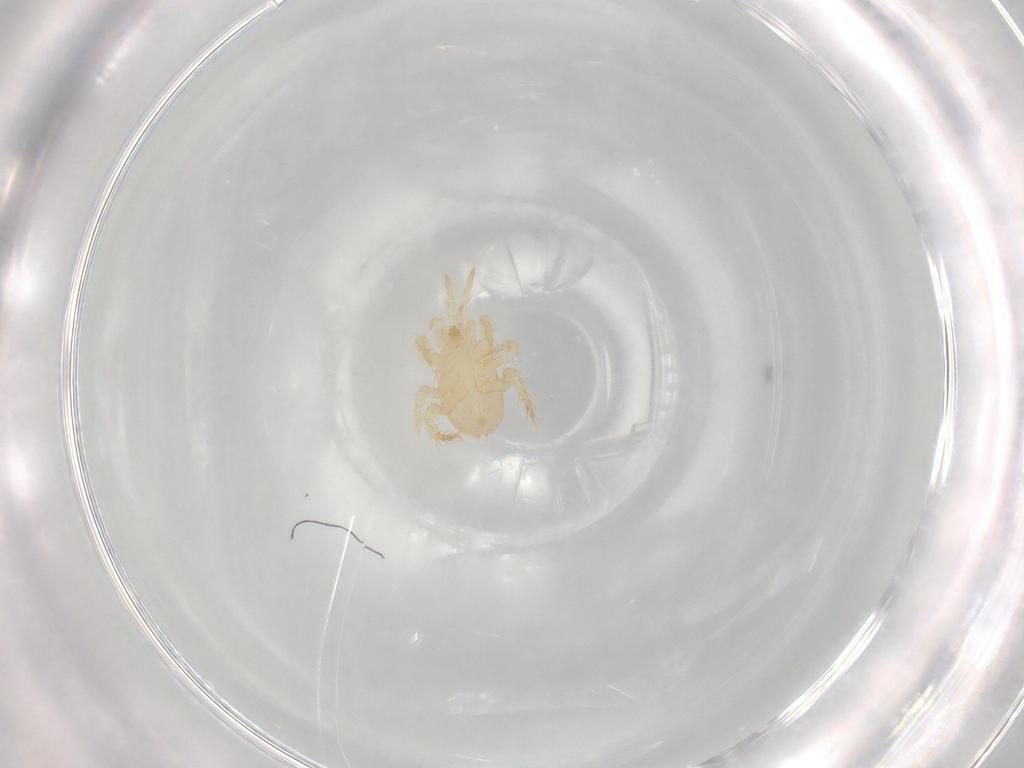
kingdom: Animalia
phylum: Arthropoda
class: Arachnida
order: Mesostigmata
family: Parasitidae
